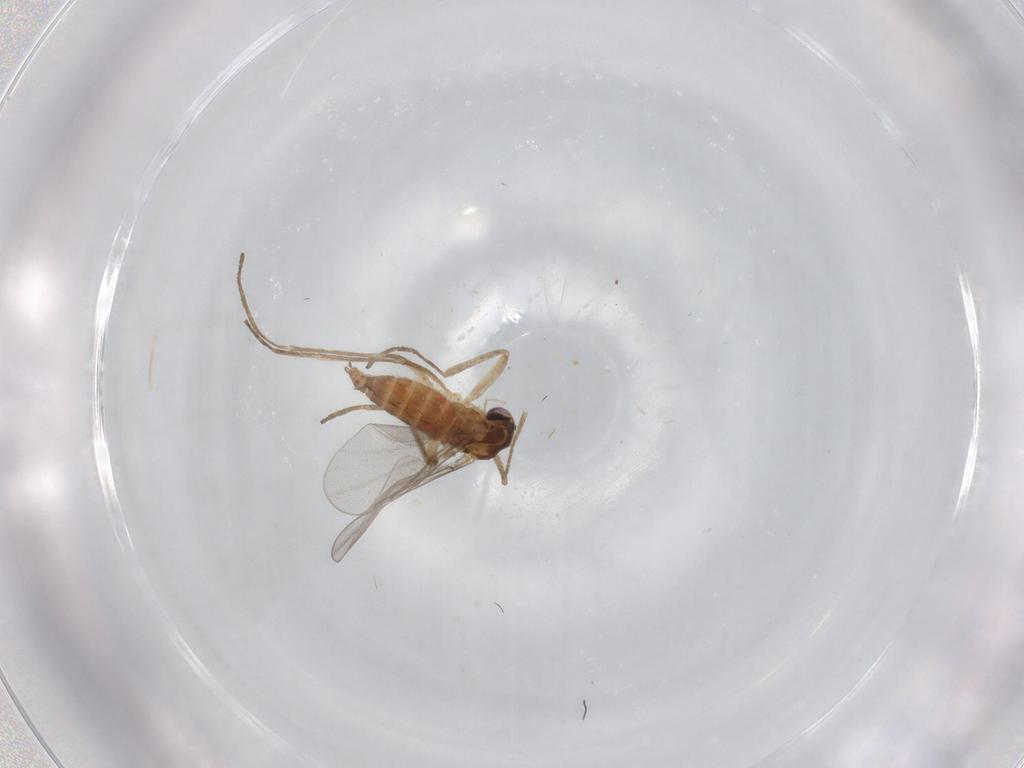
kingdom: Animalia
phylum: Arthropoda
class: Insecta
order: Diptera
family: Cecidomyiidae
